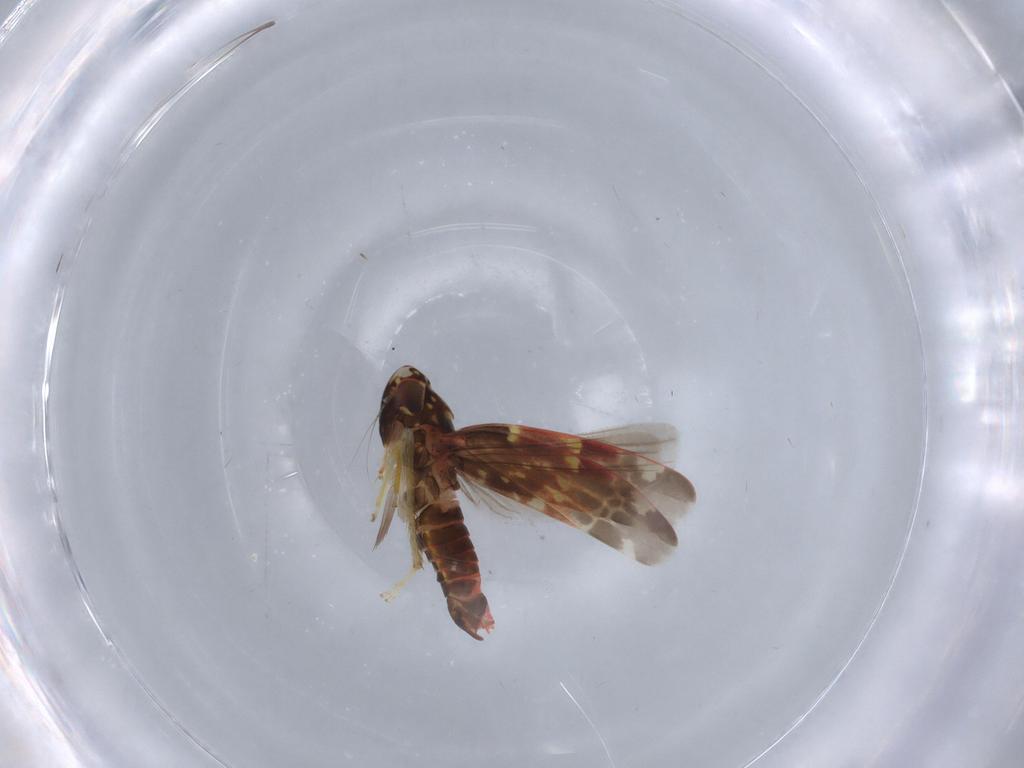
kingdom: Animalia
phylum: Arthropoda
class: Insecta
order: Hemiptera
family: Cicadellidae
